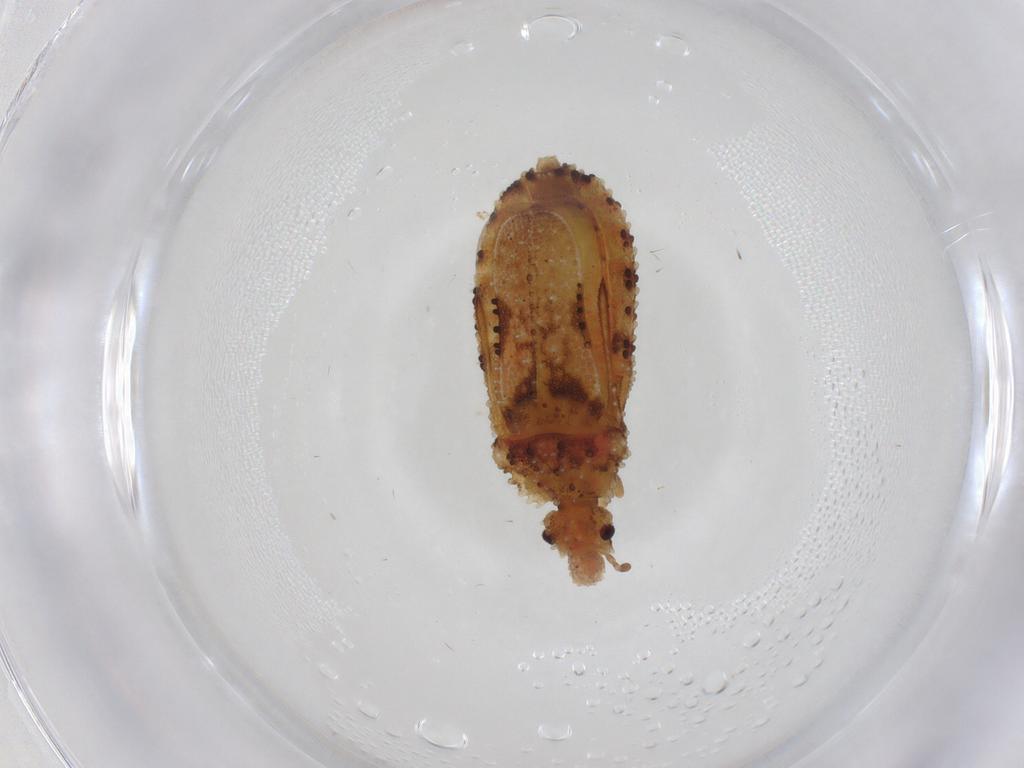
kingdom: Animalia
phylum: Arthropoda
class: Insecta
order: Hemiptera
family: Aradidae
